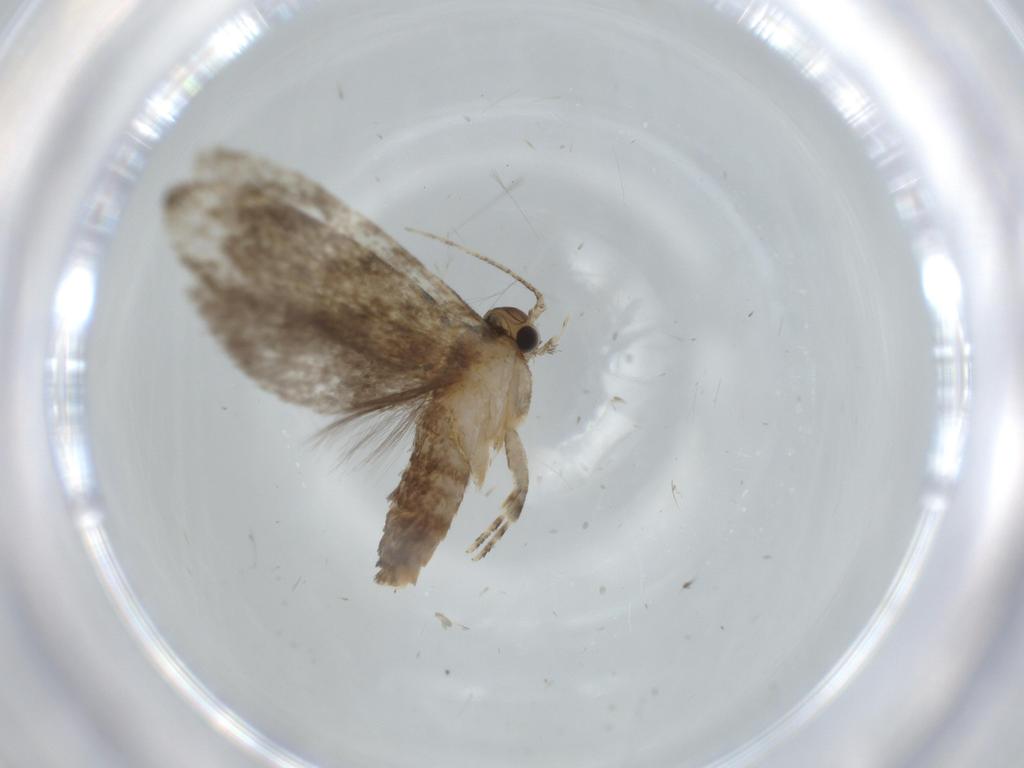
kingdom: Animalia
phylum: Arthropoda
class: Insecta
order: Lepidoptera
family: Tineidae
